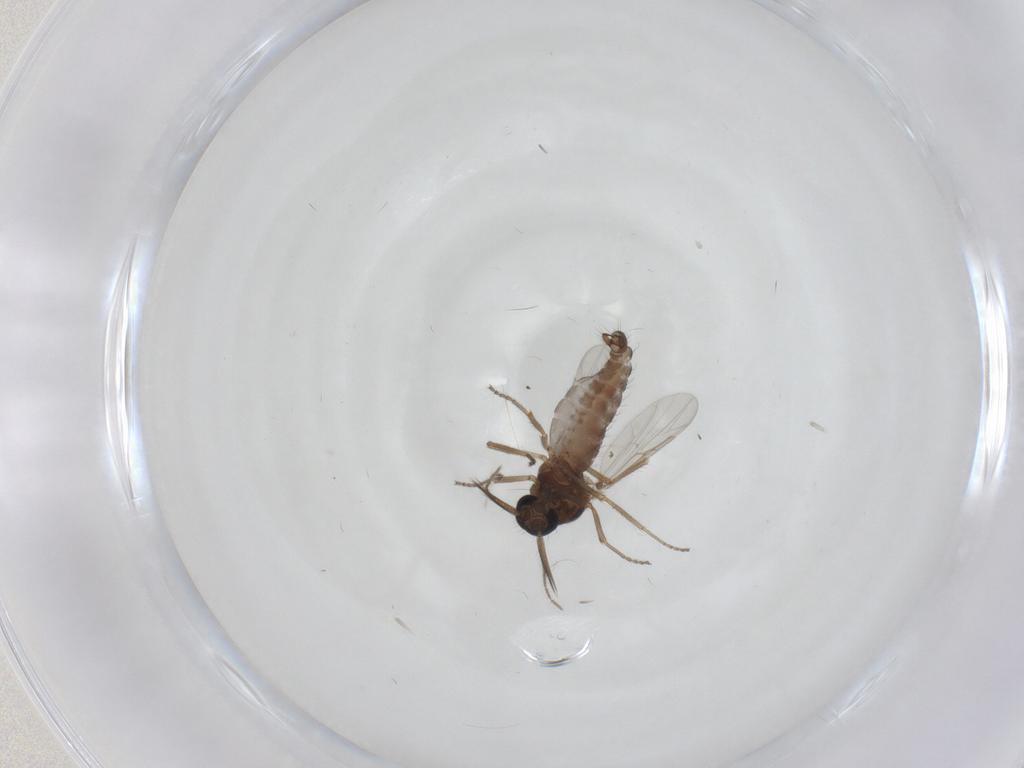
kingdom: Animalia
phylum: Arthropoda
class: Insecta
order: Diptera
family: Ceratopogonidae
